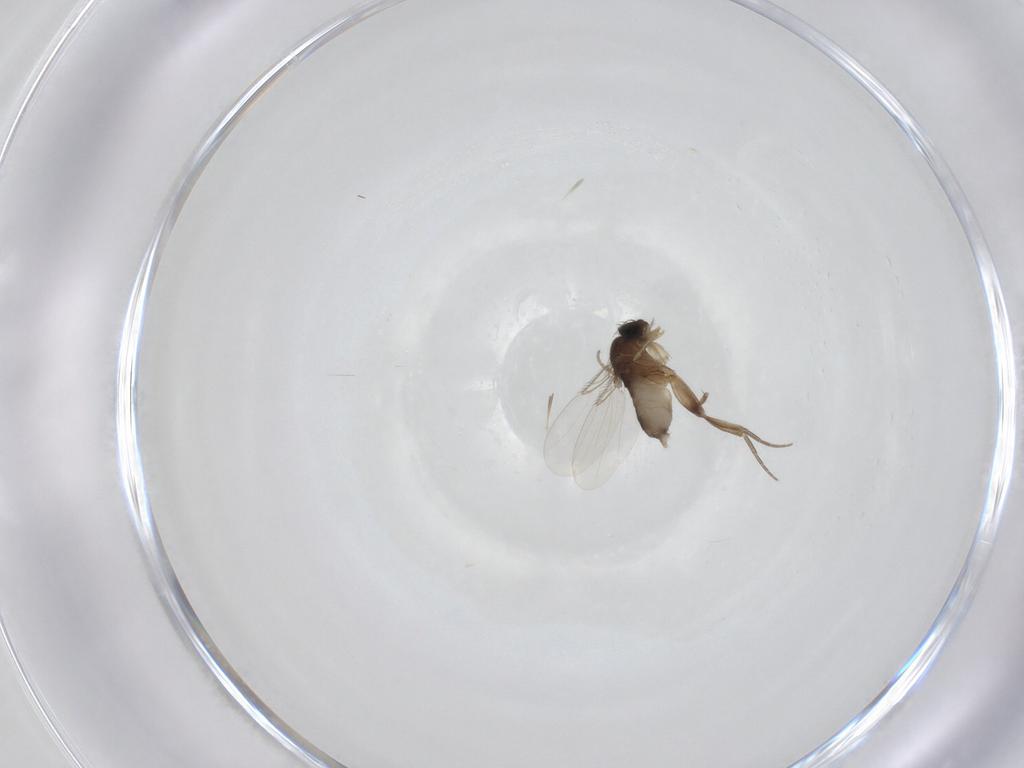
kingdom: Animalia
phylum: Arthropoda
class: Insecta
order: Diptera
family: Phoridae
